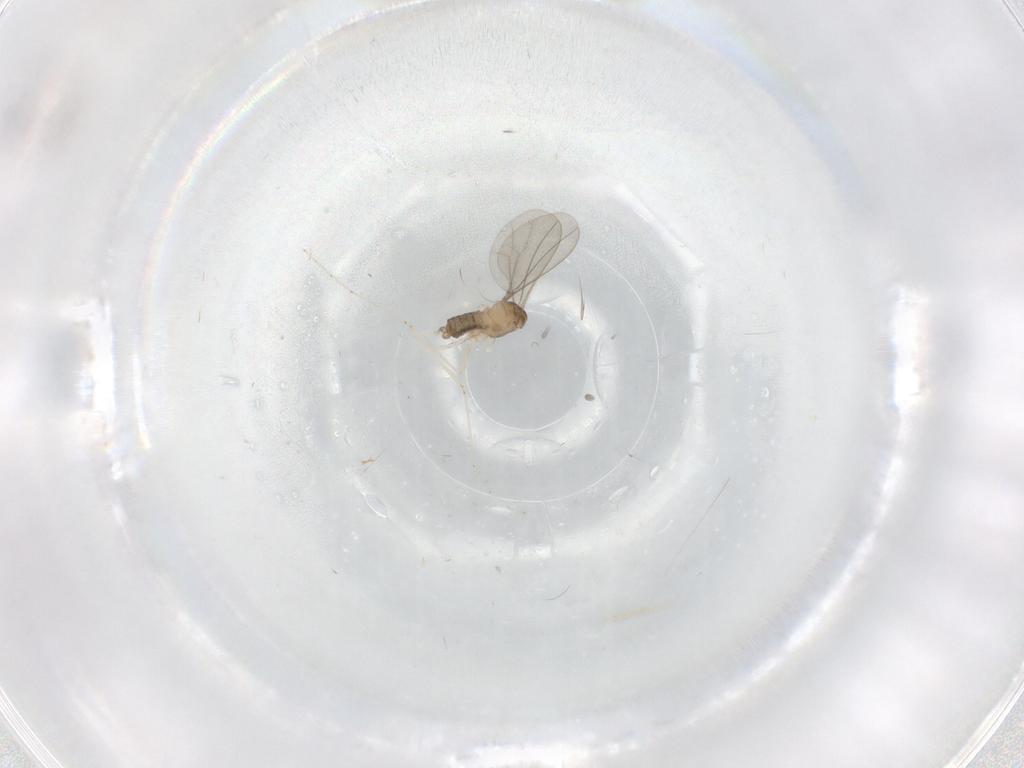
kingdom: Animalia
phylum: Arthropoda
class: Insecta
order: Diptera
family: Cecidomyiidae
